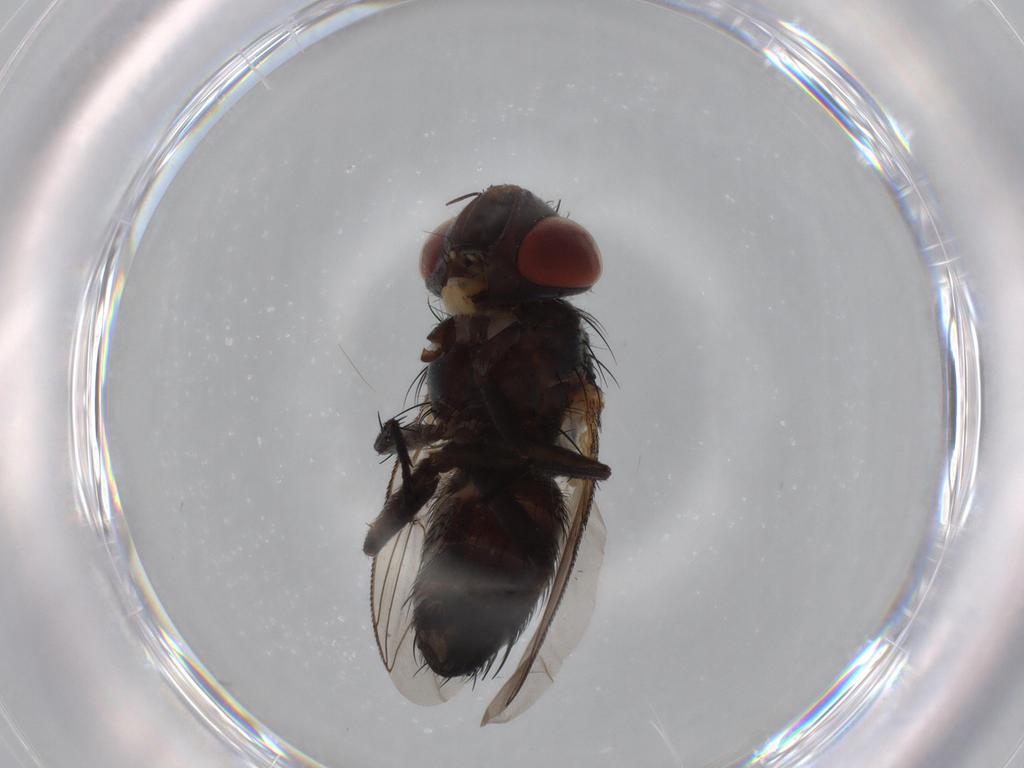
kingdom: Animalia
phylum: Arthropoda
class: Insecta
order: Diptera
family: Sarcophagidae
